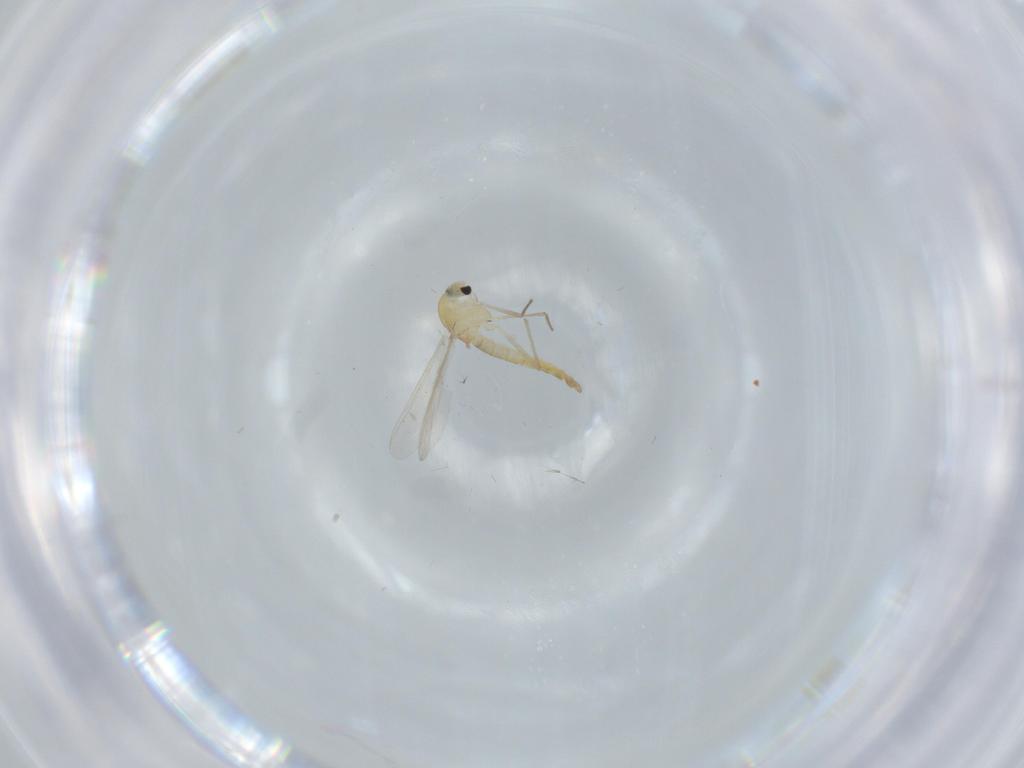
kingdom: Animalia
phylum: Arthropoda
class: Insecta
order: Diptera
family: Chironomidae
